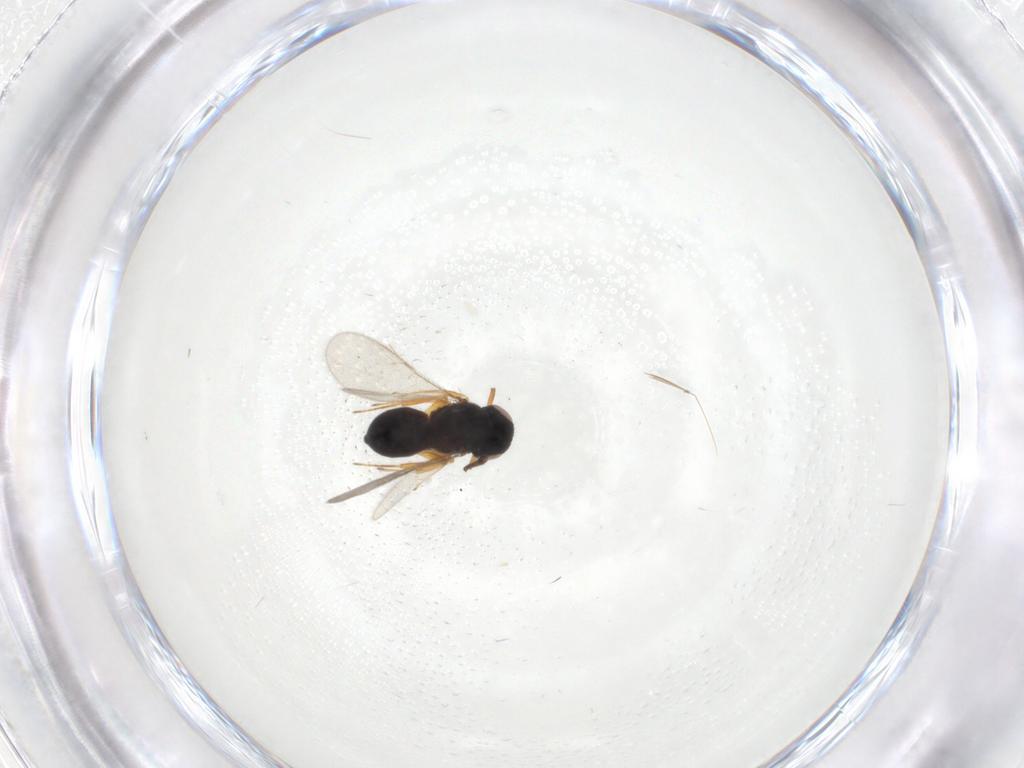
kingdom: Animalia
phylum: Arthropoda
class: Insecta
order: Hymenoptera
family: Scelionidae
